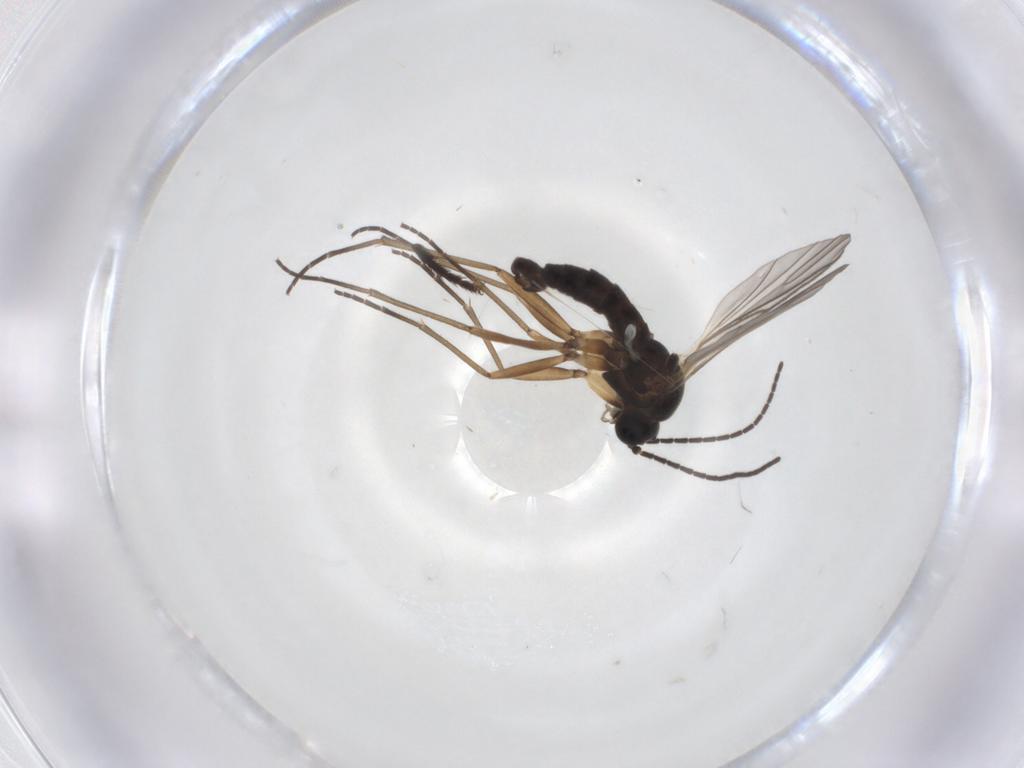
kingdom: Animalia
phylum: Arthropoda
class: Insecta
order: Diptera
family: Sciaridae
